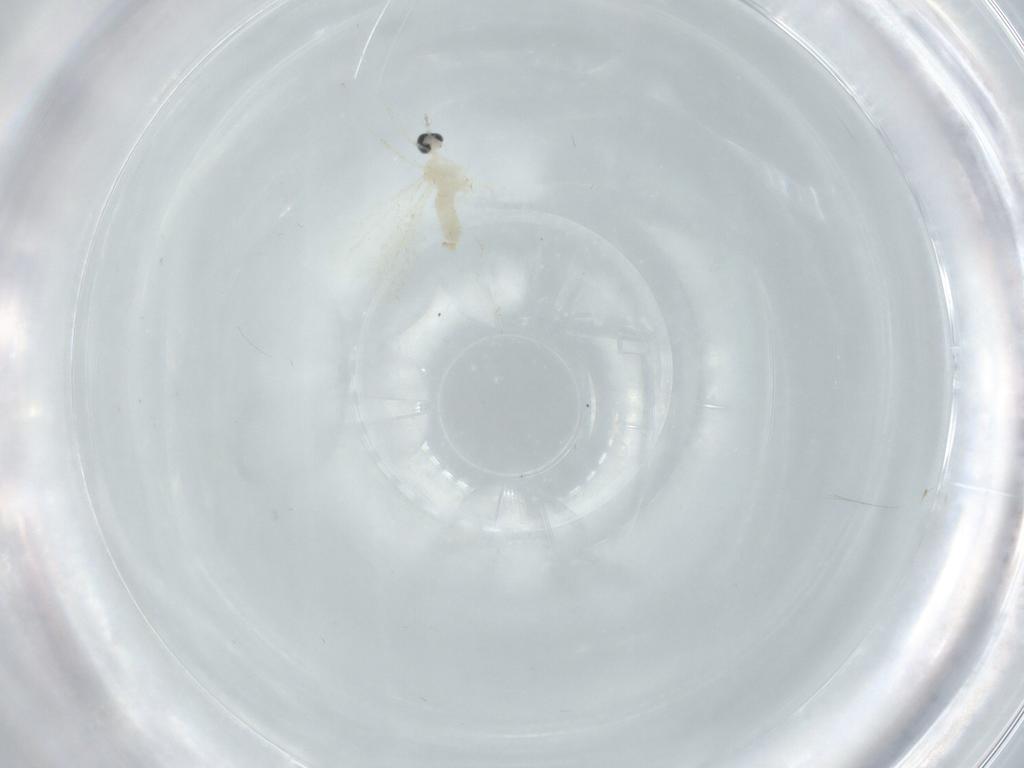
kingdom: Animalia
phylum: Arthropoda
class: Insecta
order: Diptera
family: Cecidomyiidae
